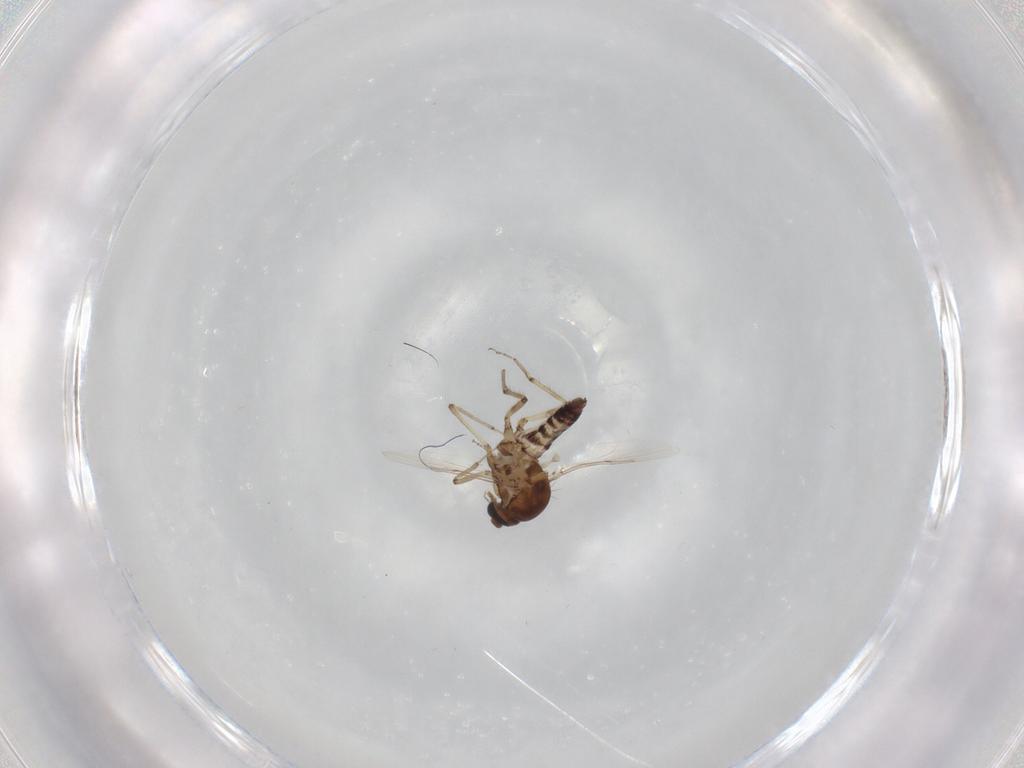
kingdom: Animalia
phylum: Arthropoda
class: Insecta
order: Diptera
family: Ceratopogonidae
